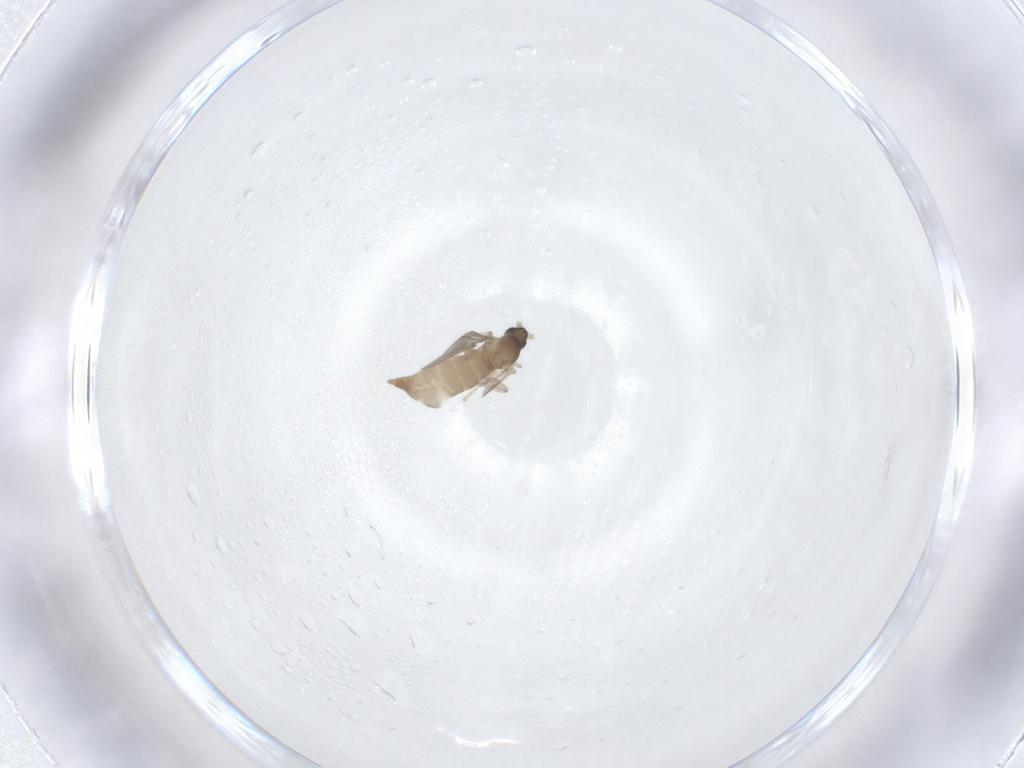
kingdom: Animalia
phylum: Arthropoda
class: Insecta
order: Diptera
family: Cecidomyiidae
